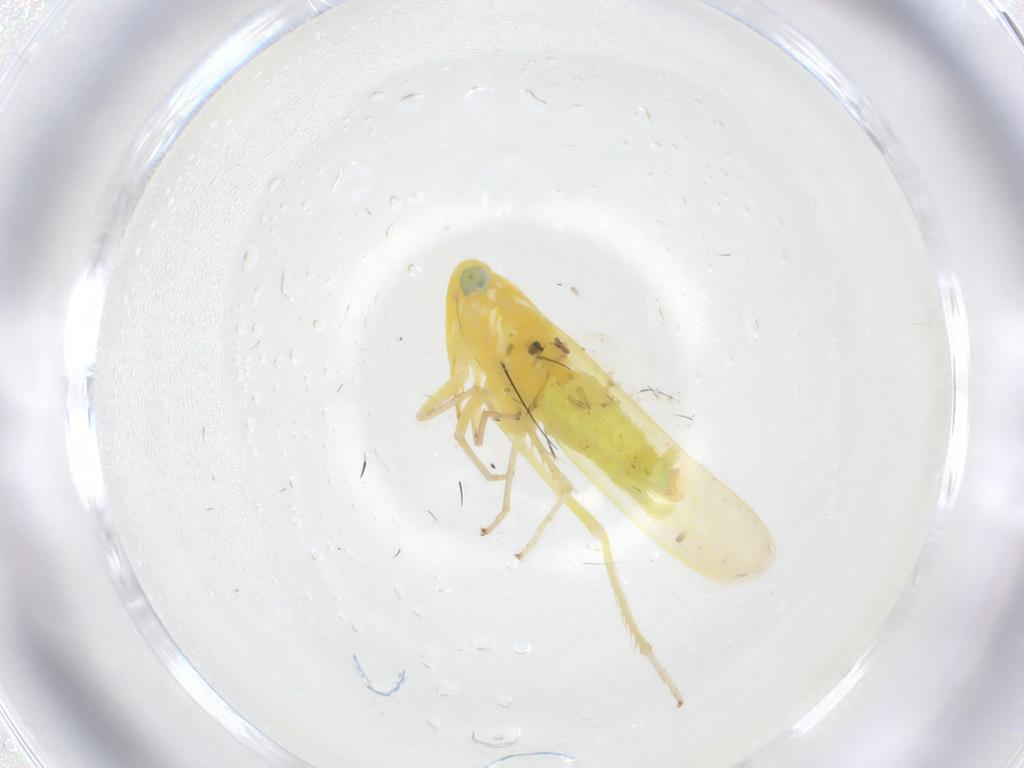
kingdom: Animalia
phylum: Arthropoda
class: Insecta
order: Hemiptera
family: Cicadellidae
